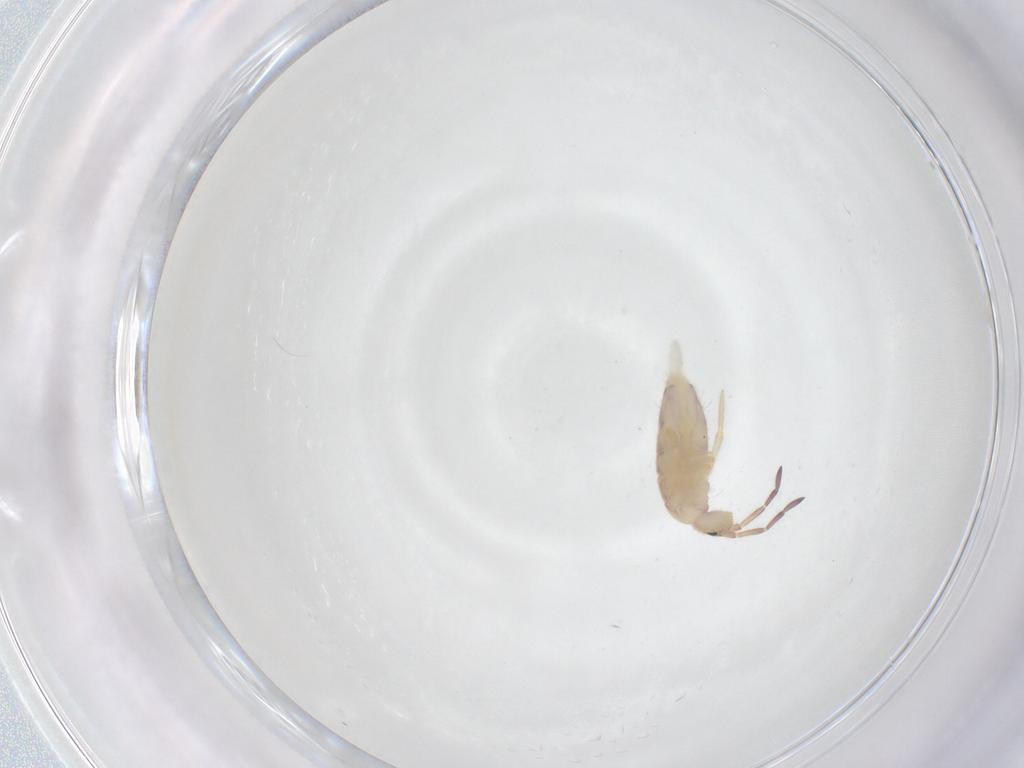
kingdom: Animalia
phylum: Arthropoda
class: Collembola
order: Entomobryomorpha
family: Entomobryidae
